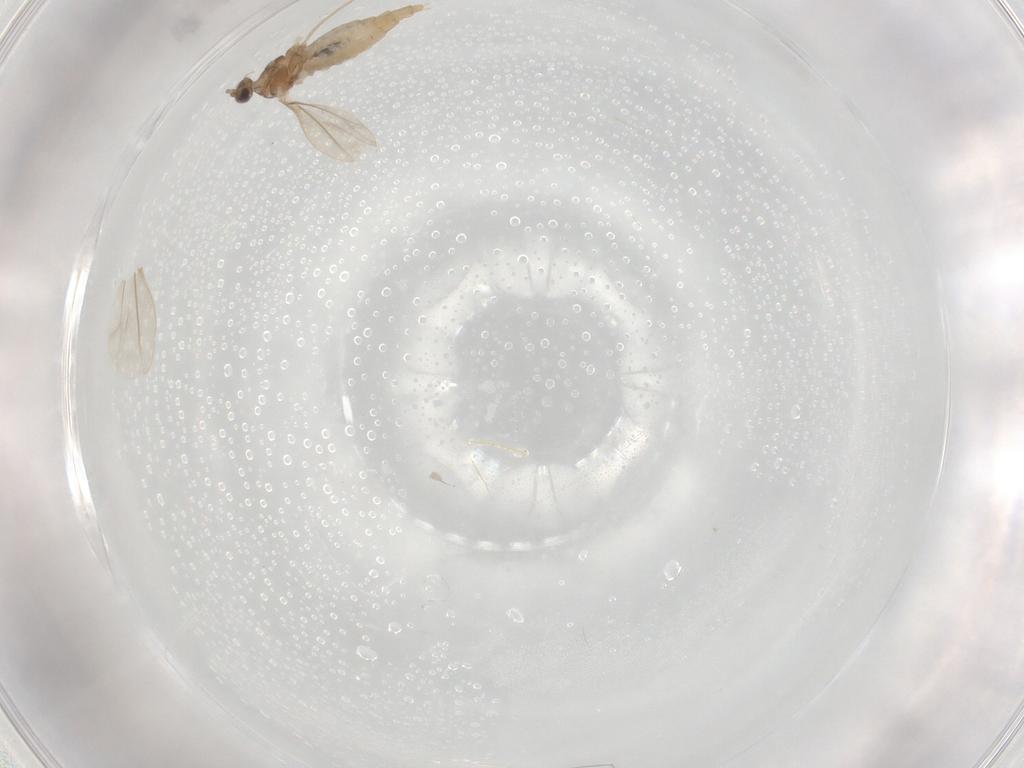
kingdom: Animalia
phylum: Arthropoda
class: Insecta
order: Diptera
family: Cecidomyiidae
